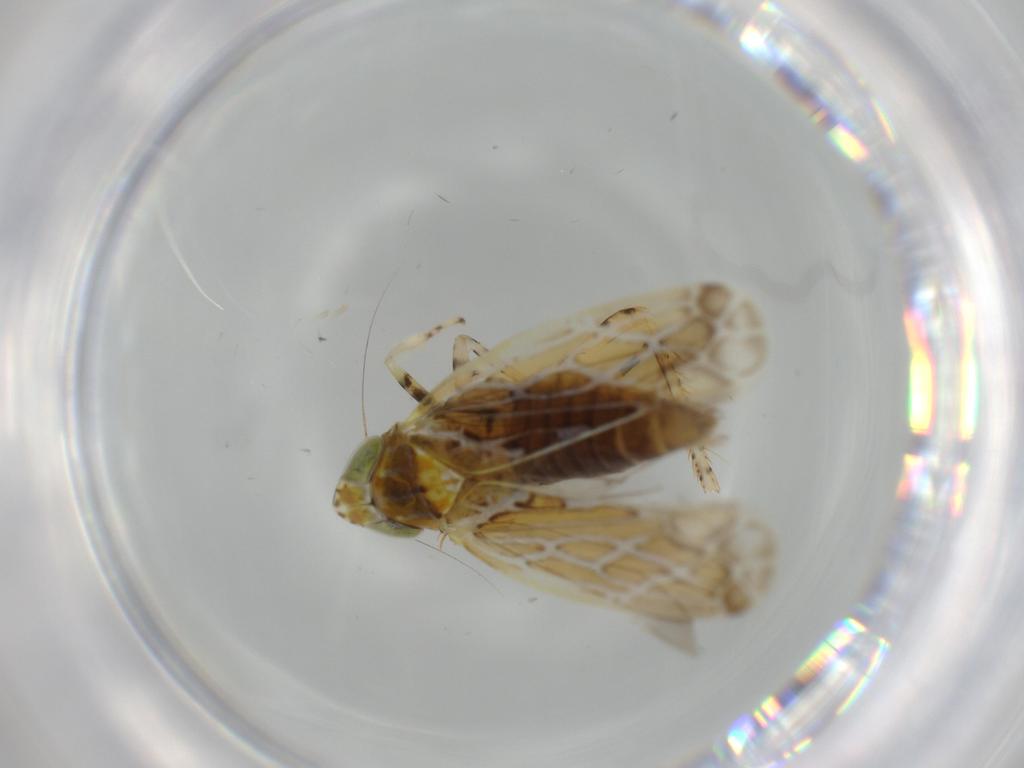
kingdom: Animalia
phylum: Arthropoda
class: Insecta
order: Hemiptera
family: Cicadellidae
